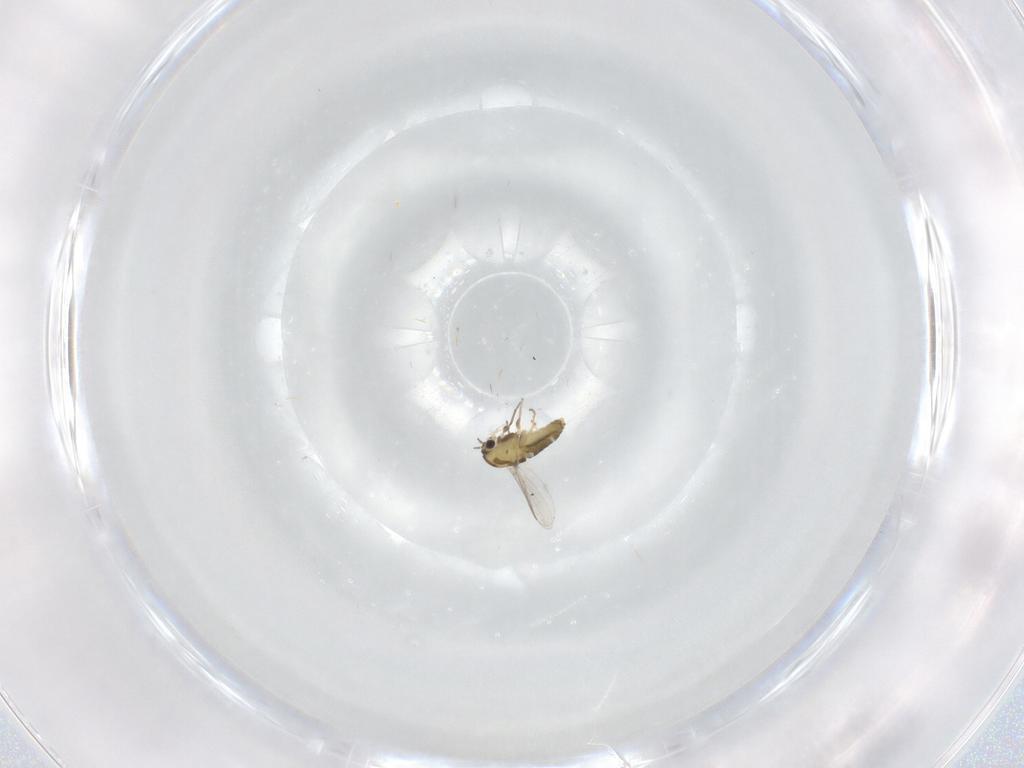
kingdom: Animalia
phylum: Arthropoda
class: Insecta
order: Diptera
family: Chironomidae
